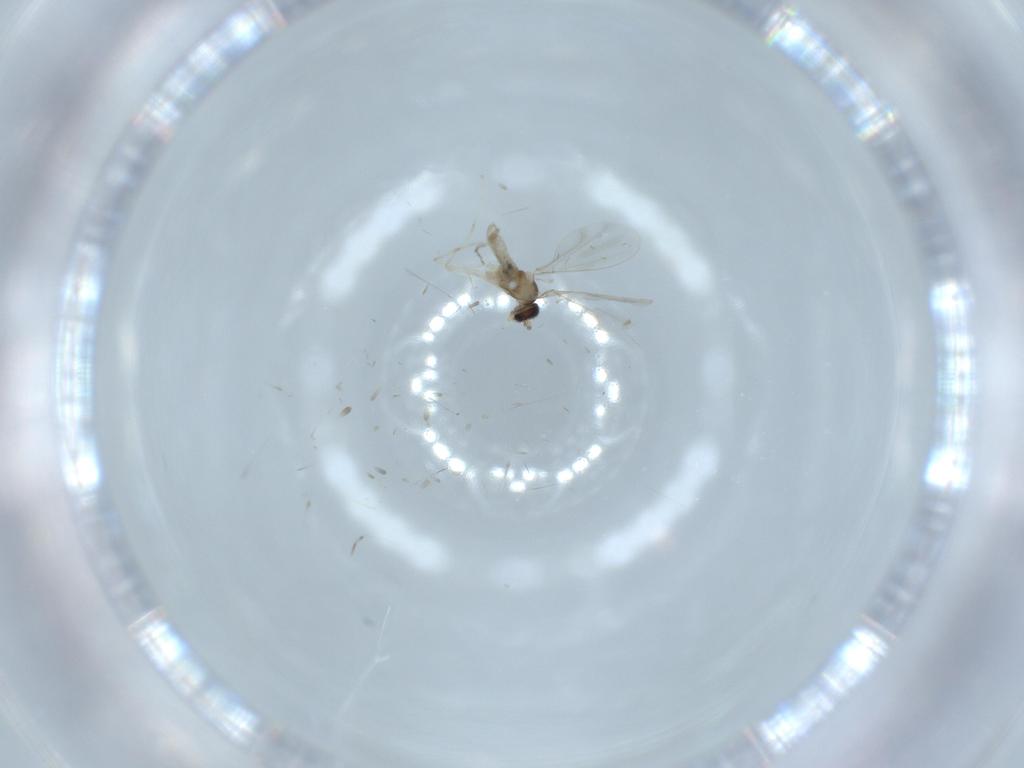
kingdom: Animalia
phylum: Arthropoda
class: Insecta
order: Diptera
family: Cecidomyiidae
